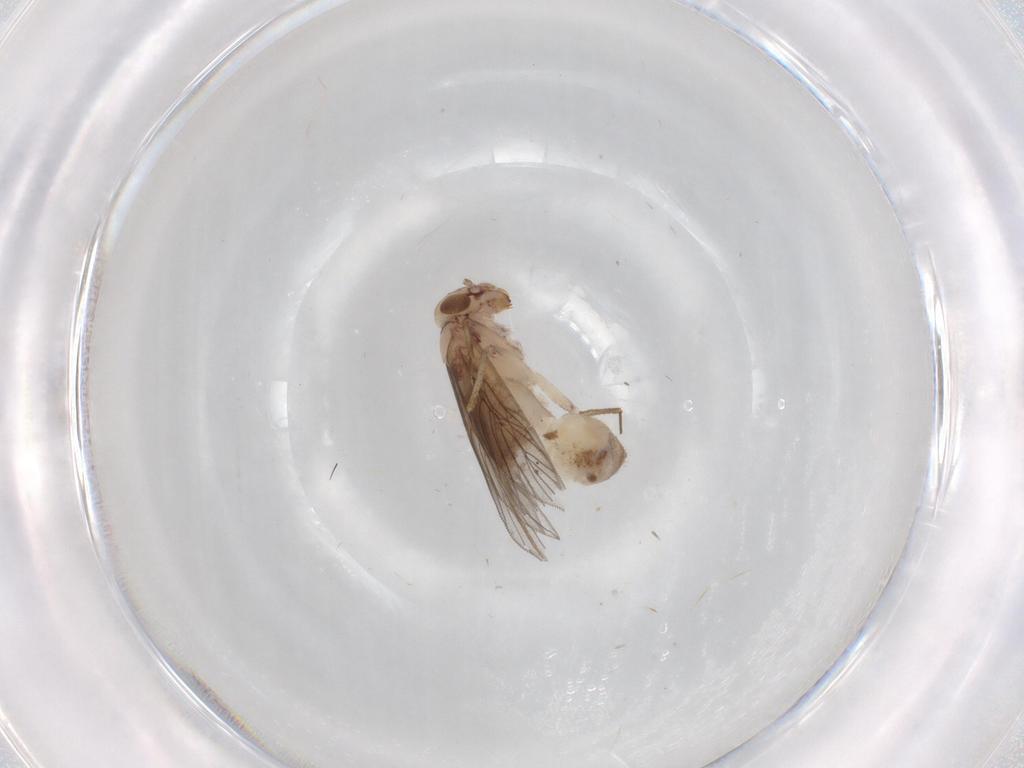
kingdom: Animalia
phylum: Arthropoda
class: Insecta
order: Psocodea
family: Lepidopsocidae
